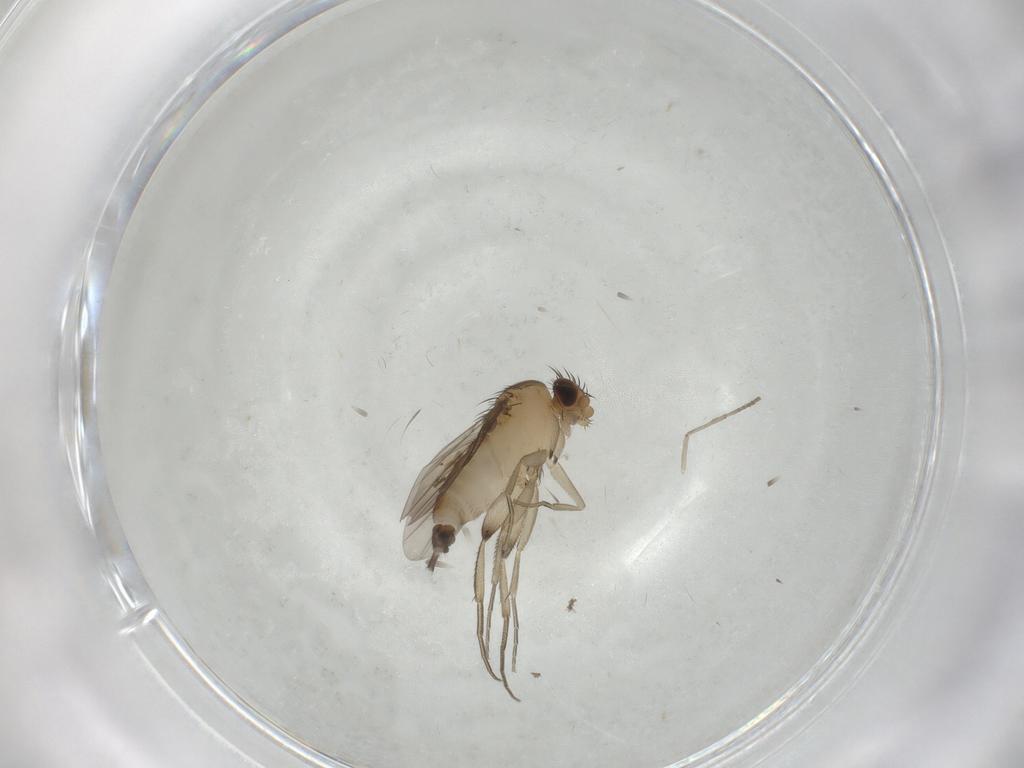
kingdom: Animalia
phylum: Arthropoda
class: Insecta
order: Diptera
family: Phoridae
